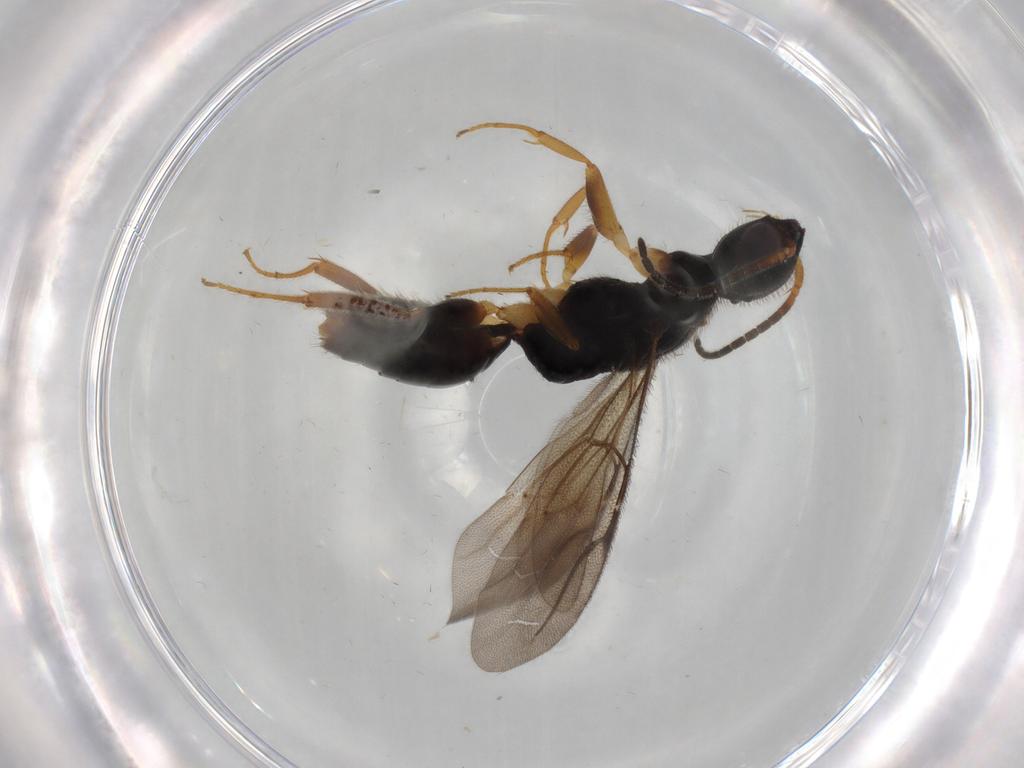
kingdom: Animalia
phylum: Arthropoda
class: Insecta
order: Hymenoptera
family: Bethylidae
